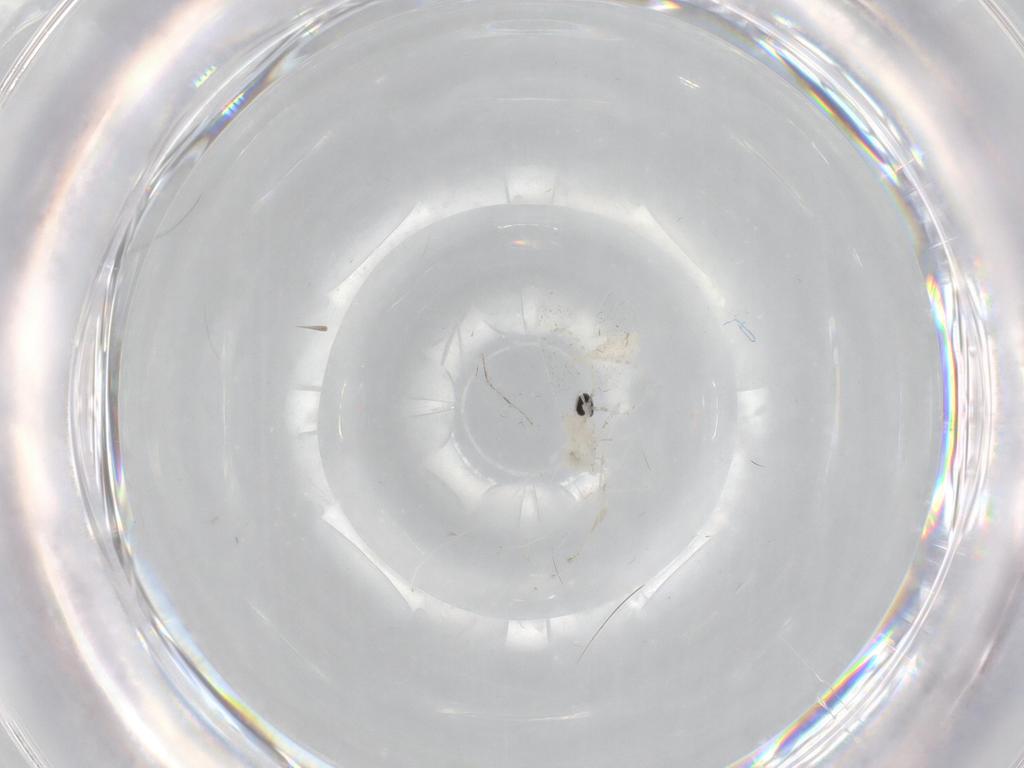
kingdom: Animalia
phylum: Arthropoda
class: Insecta
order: Diptera
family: Cecidomyiidae
